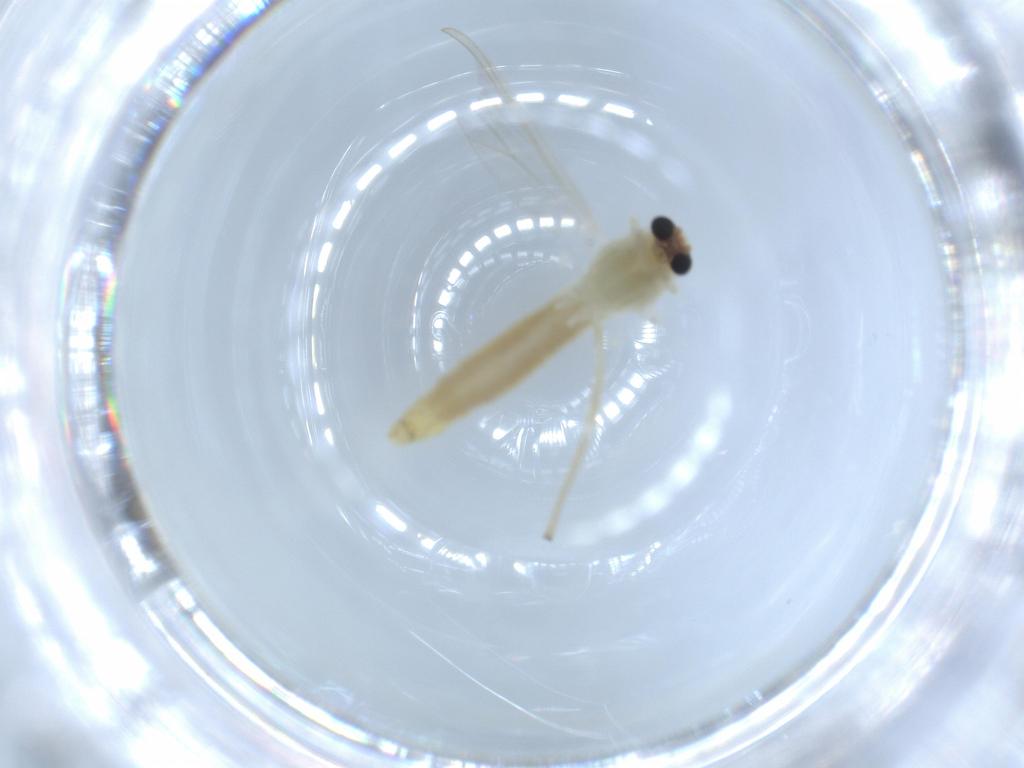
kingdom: Animalia
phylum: Arthropoda
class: Insecta
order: Diptera
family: Chironomidae
